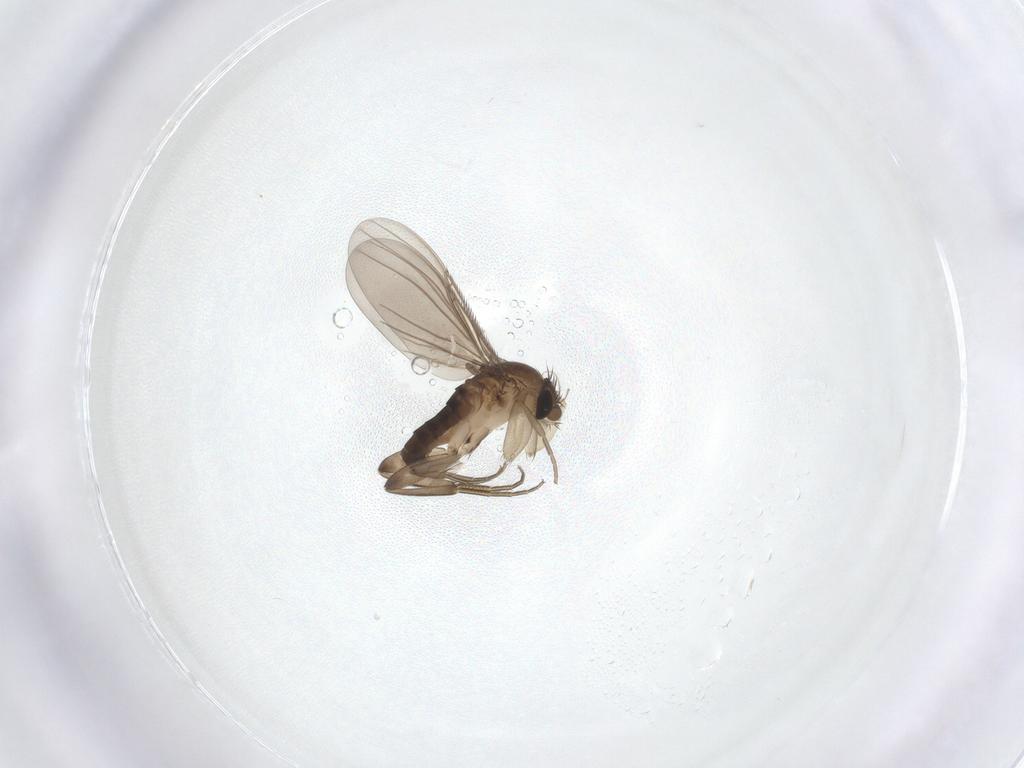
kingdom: Animalia
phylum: Arthropoda
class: Insecta
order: Diptera
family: Phoridae
